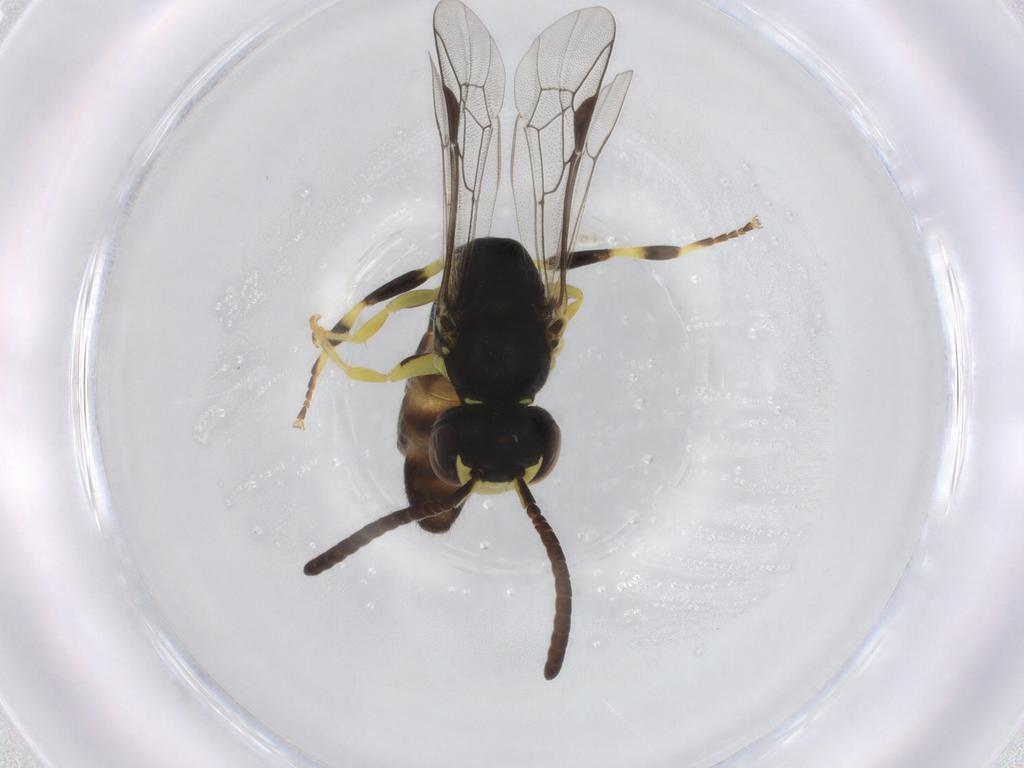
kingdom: Animalia
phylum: Arthropoda
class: Insecta
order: Hymenoptera
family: Colletidae
